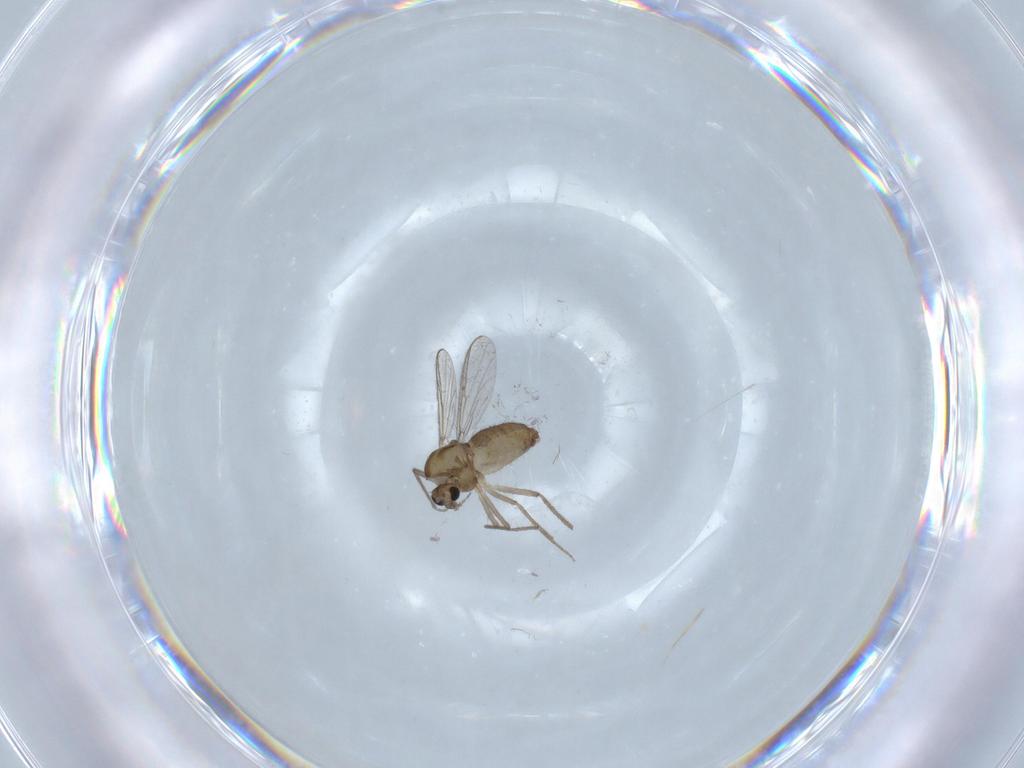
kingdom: Animalia
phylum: Arthropoda
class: Insecta
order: Diptera
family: Chironomidae
